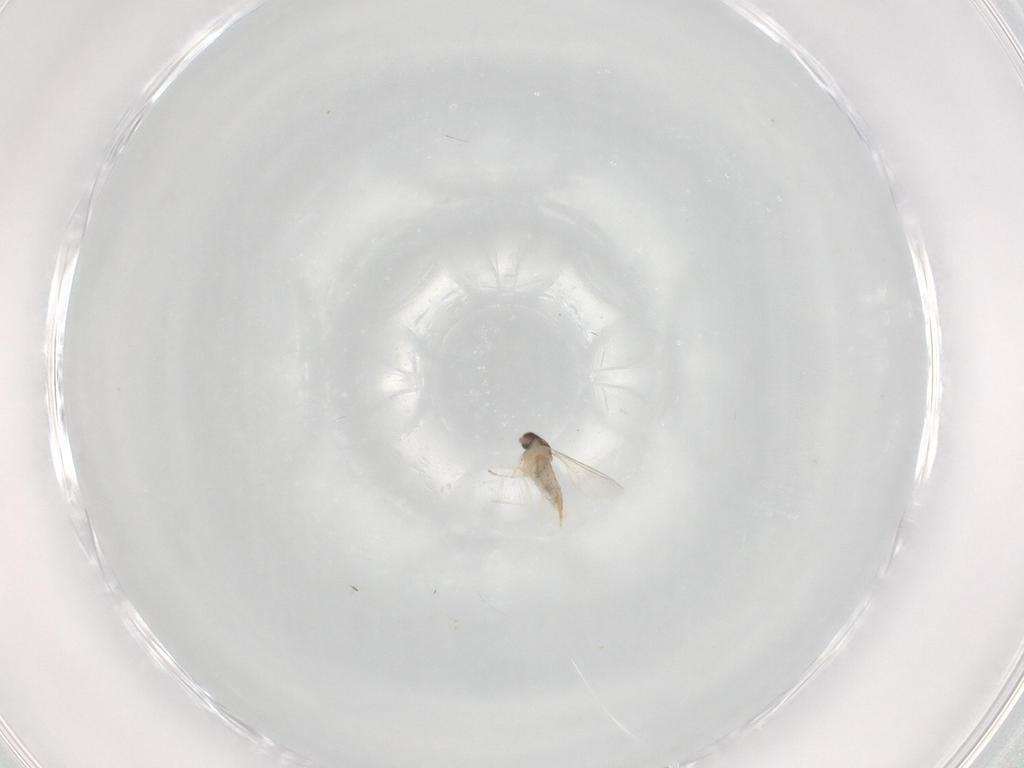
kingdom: Animalia
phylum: Arthropoda
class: Insecta
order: Diptera
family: Cecidomyiidae
